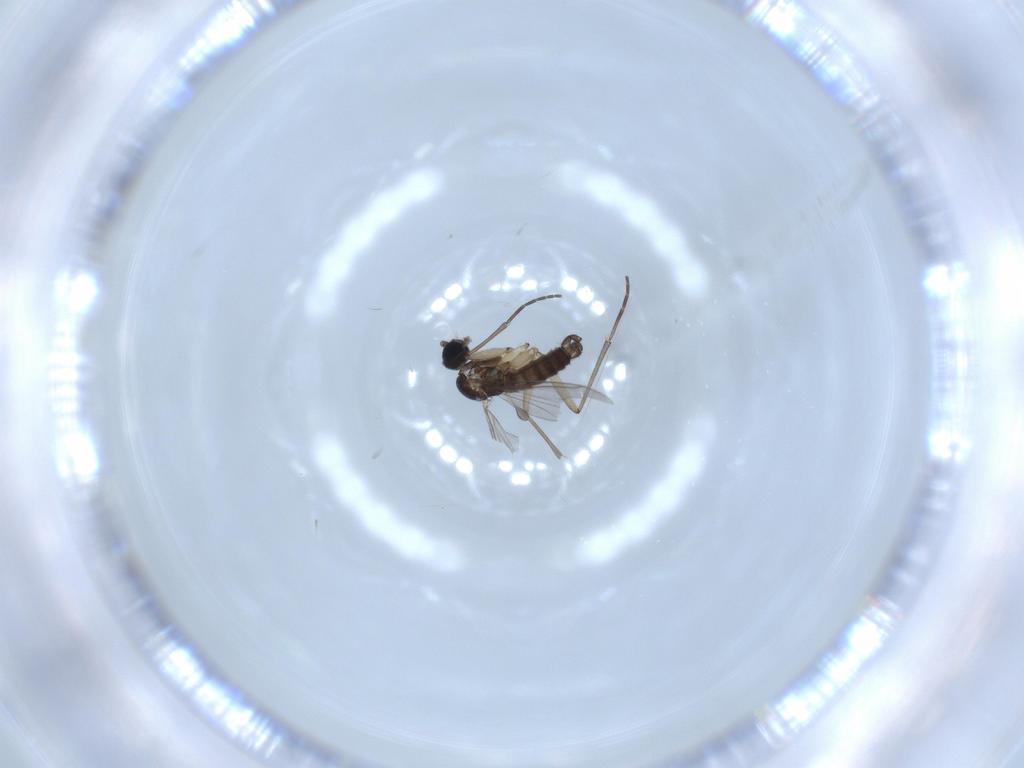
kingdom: Animalia
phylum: Arthropoda
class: Insecta
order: Diptera
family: Sciaridae
